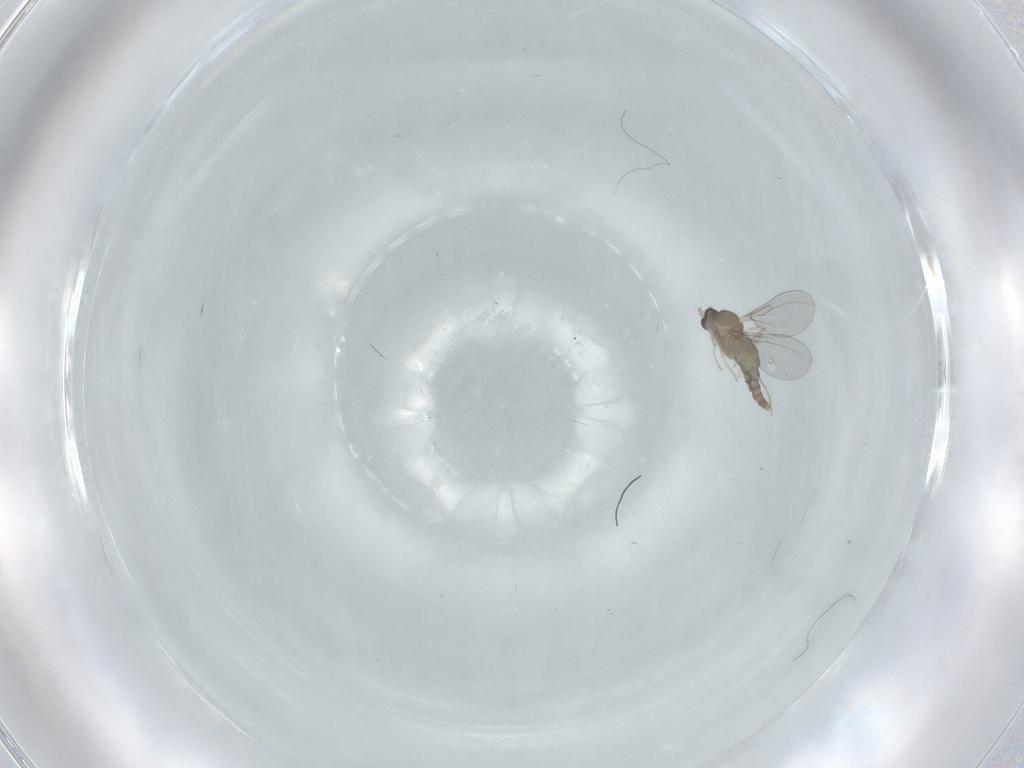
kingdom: Animalia
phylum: Arthropoda
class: Insecta
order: Diptera
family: Cecidomyiidae
